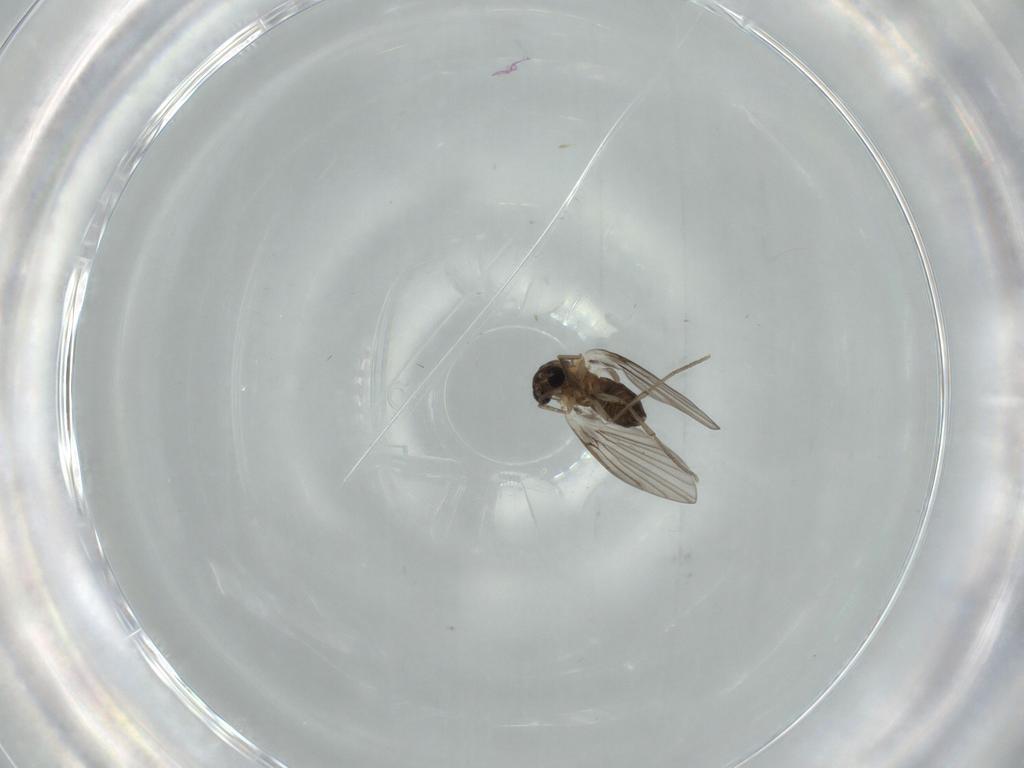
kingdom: Animalia
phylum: Arthropoda
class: Insecta
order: Diptera
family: Psychodidae
